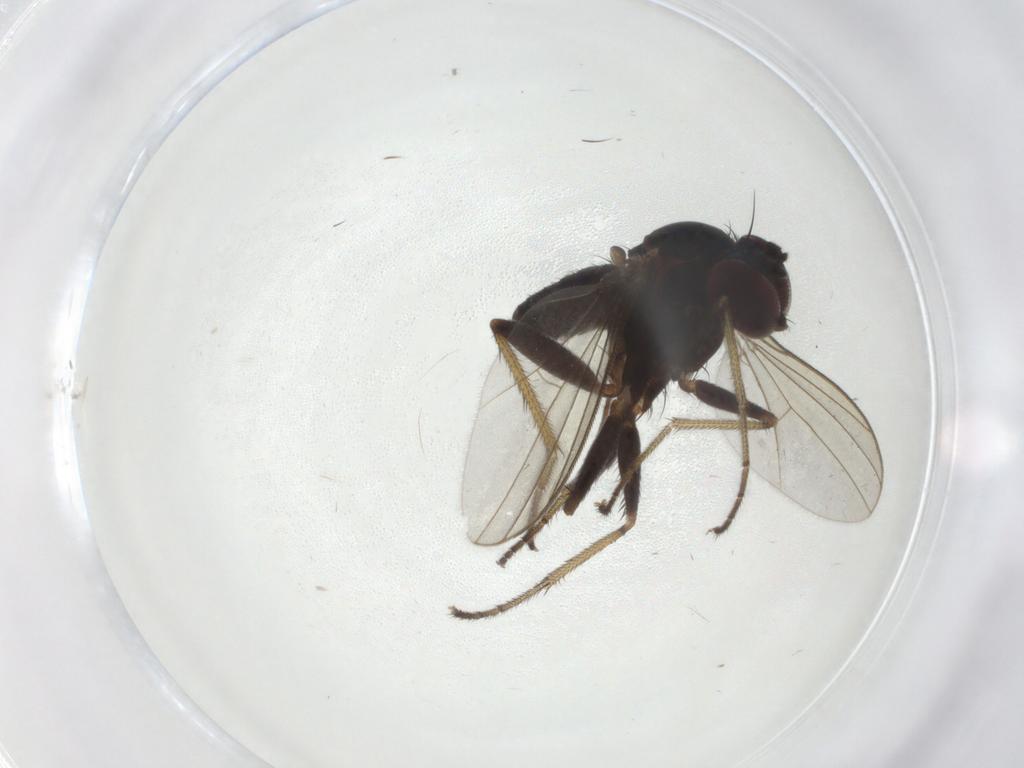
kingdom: Animalia
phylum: Arthropoda
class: Insecta
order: Diptera
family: Dolichopodidae
